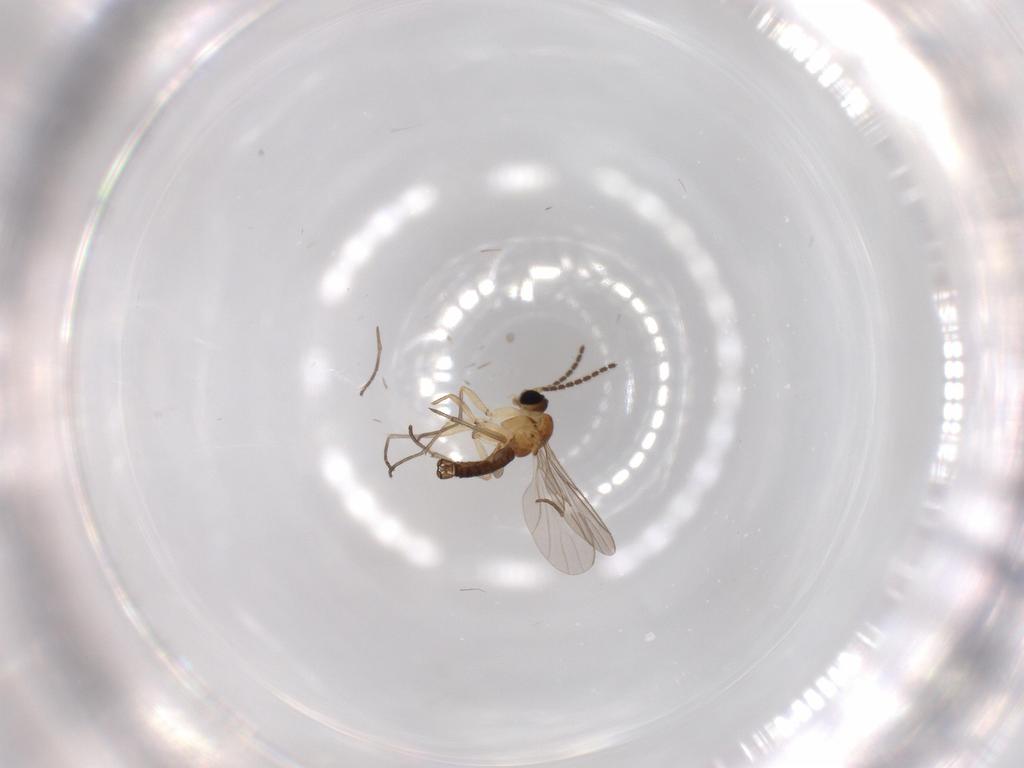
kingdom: Animalia
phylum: Arthropoda
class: Insecta
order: Diptera
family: Sciaridae
